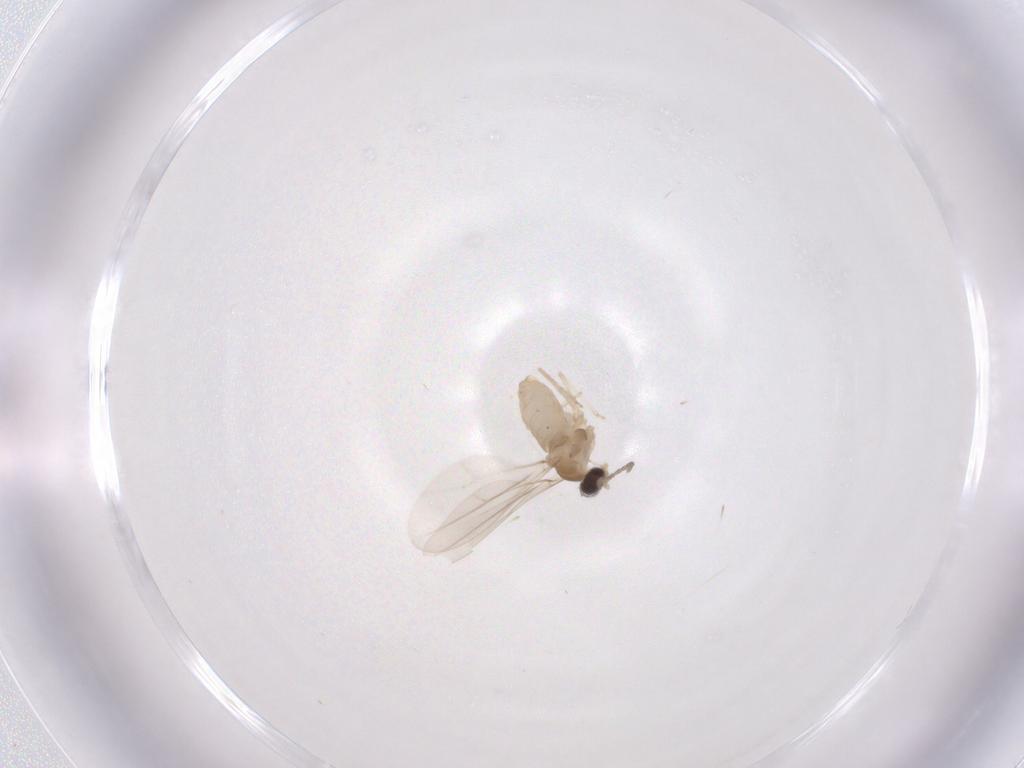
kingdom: Animalia
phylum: Arthropoda
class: Insecta
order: Diptera
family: Cecidomyiidae
